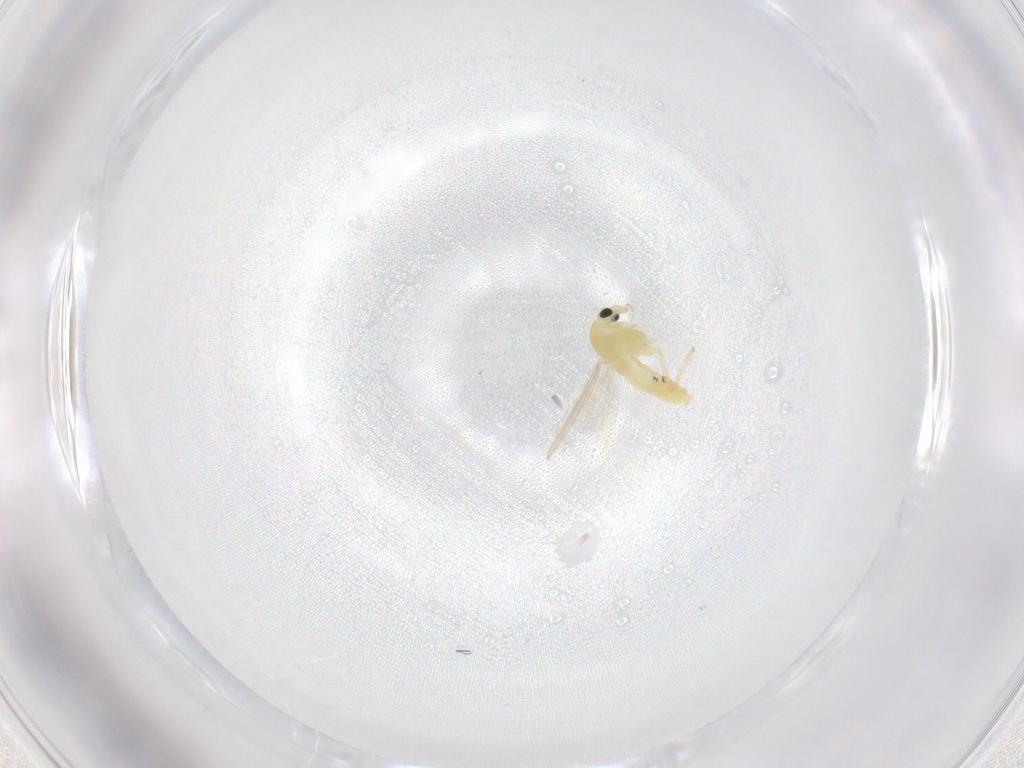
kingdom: Animalia
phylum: Arthropoda
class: Insecta
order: Diptera
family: Chironomidae
